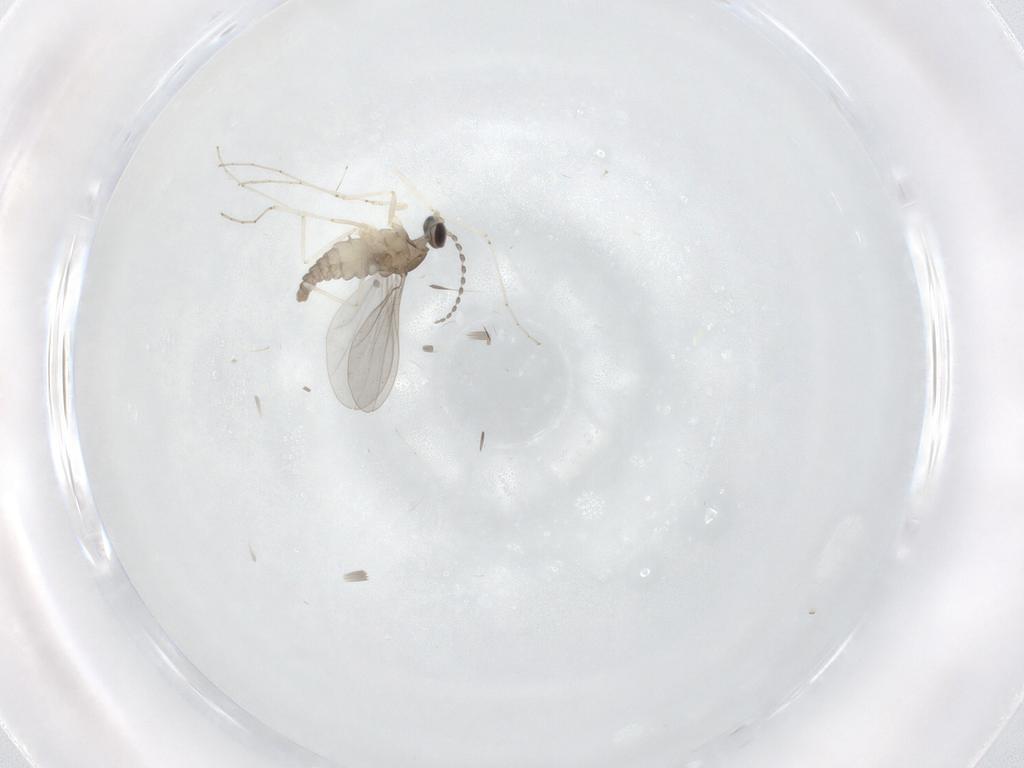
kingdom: Animalia
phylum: Arthropoda
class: Insecta
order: Diptera
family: Cecidomyiidae
